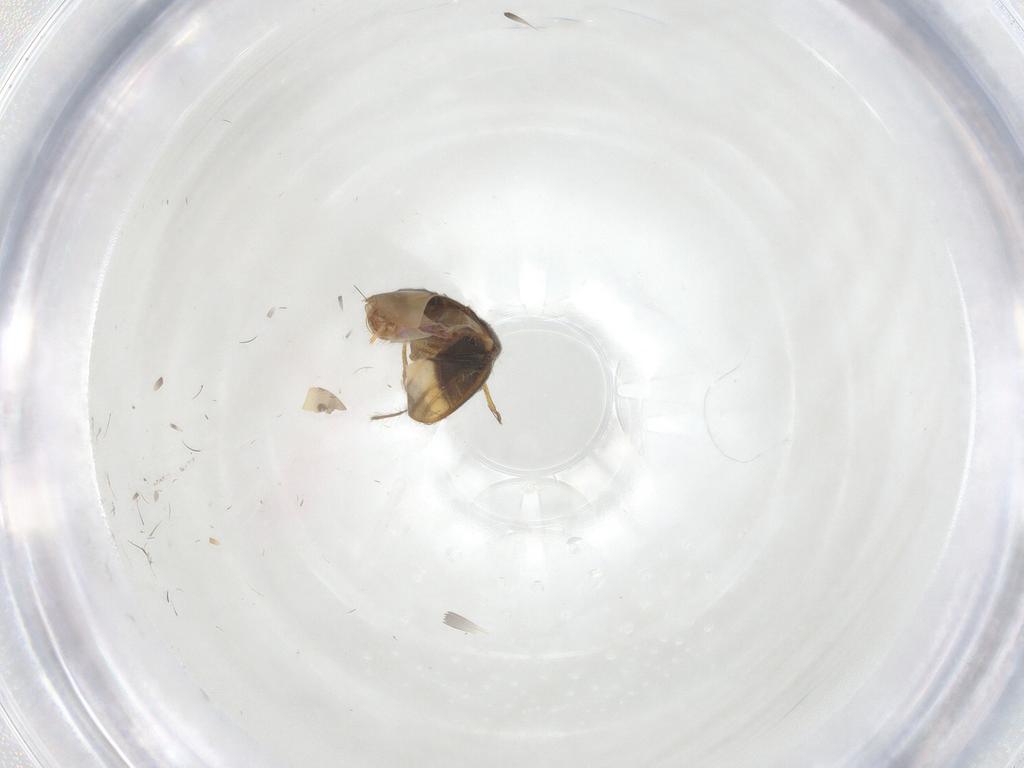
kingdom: Animalia
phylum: Arthropoda
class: Insecta
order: Hemiptera
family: Schizopteridae
